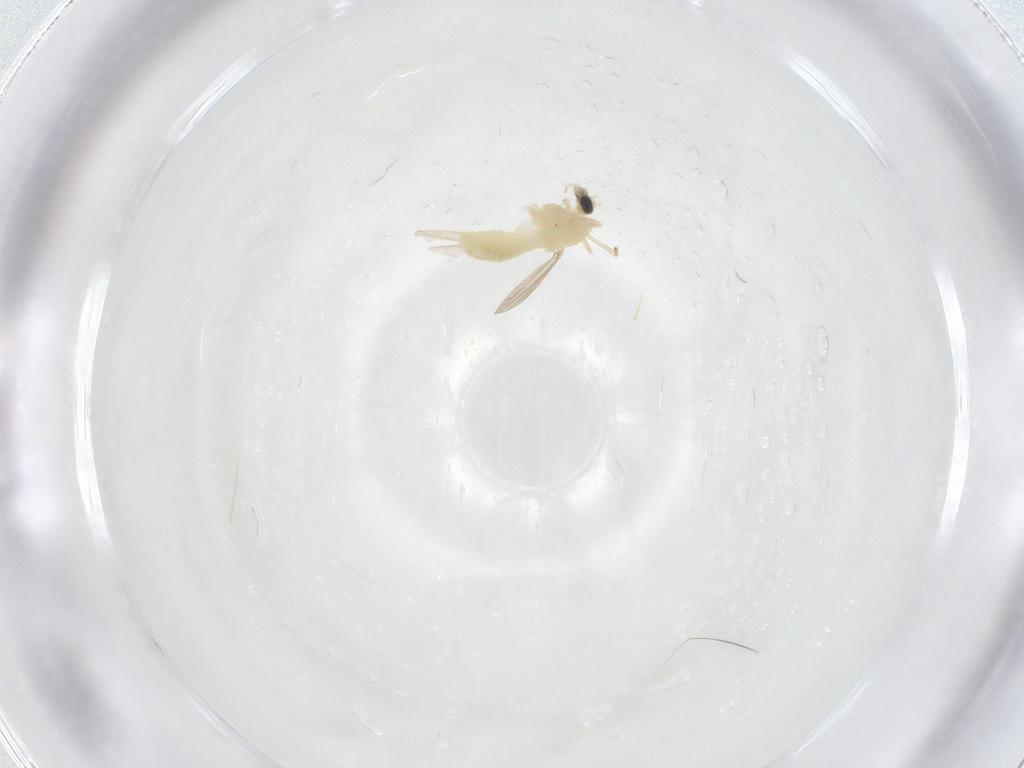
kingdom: Animalia
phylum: Arthropoda
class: Insecta
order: Diptera
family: Chironomidae
